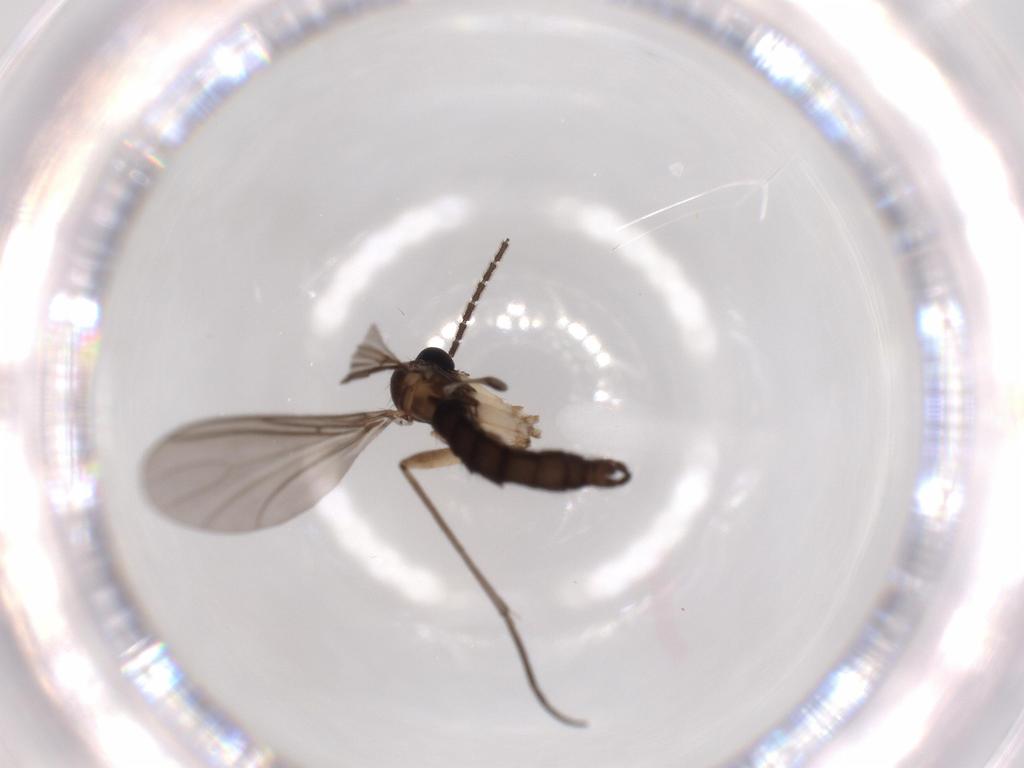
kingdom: Animalia
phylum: Arthropoda
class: Insecta
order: Diptera
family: Sciaridae
